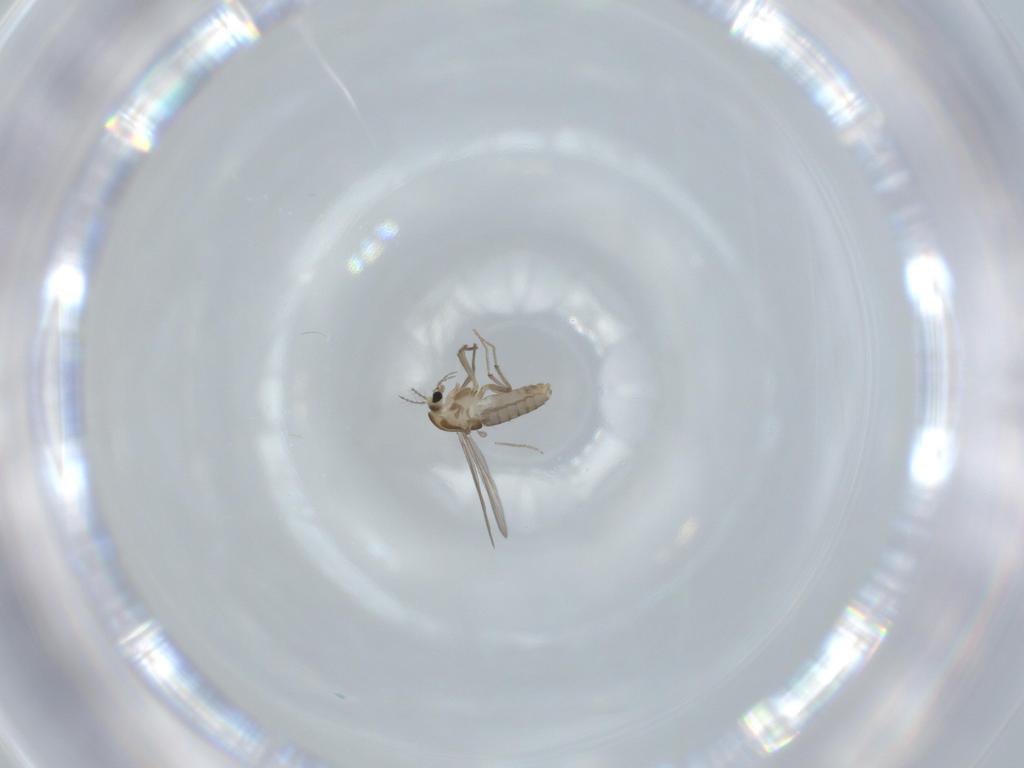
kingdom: Animalia
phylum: Arthropoda
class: Insecta
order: Diptera
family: Chironomidae
